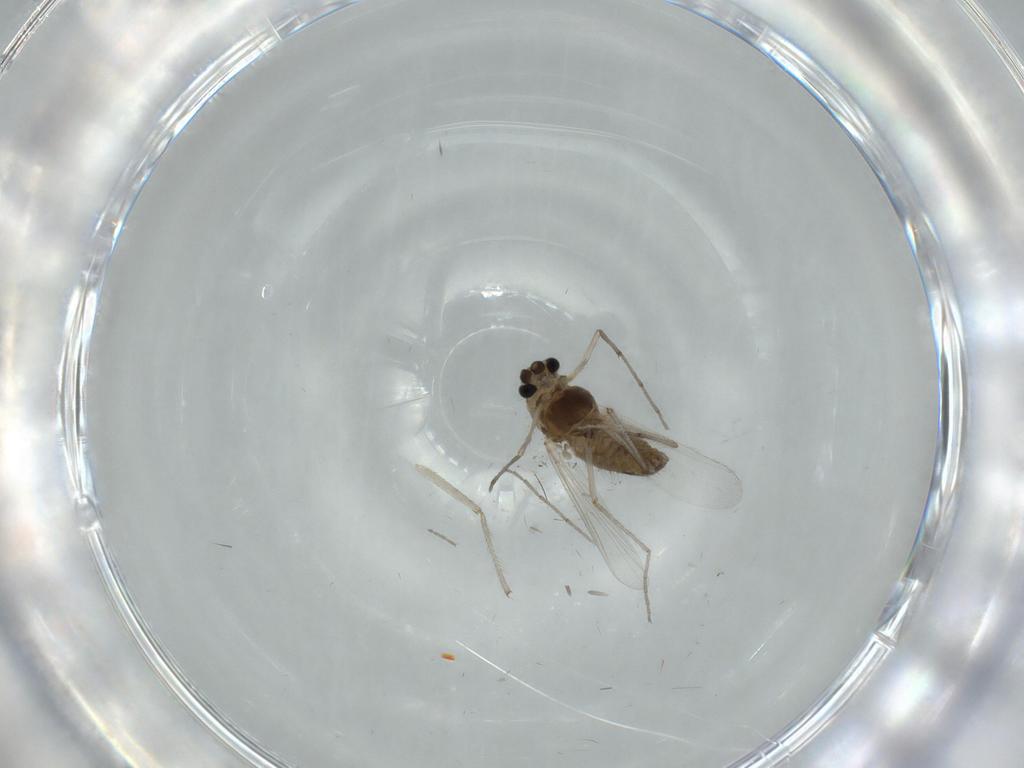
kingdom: Animalia
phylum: Arthropoda
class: Insecta
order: Diptera
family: Chironomidae
